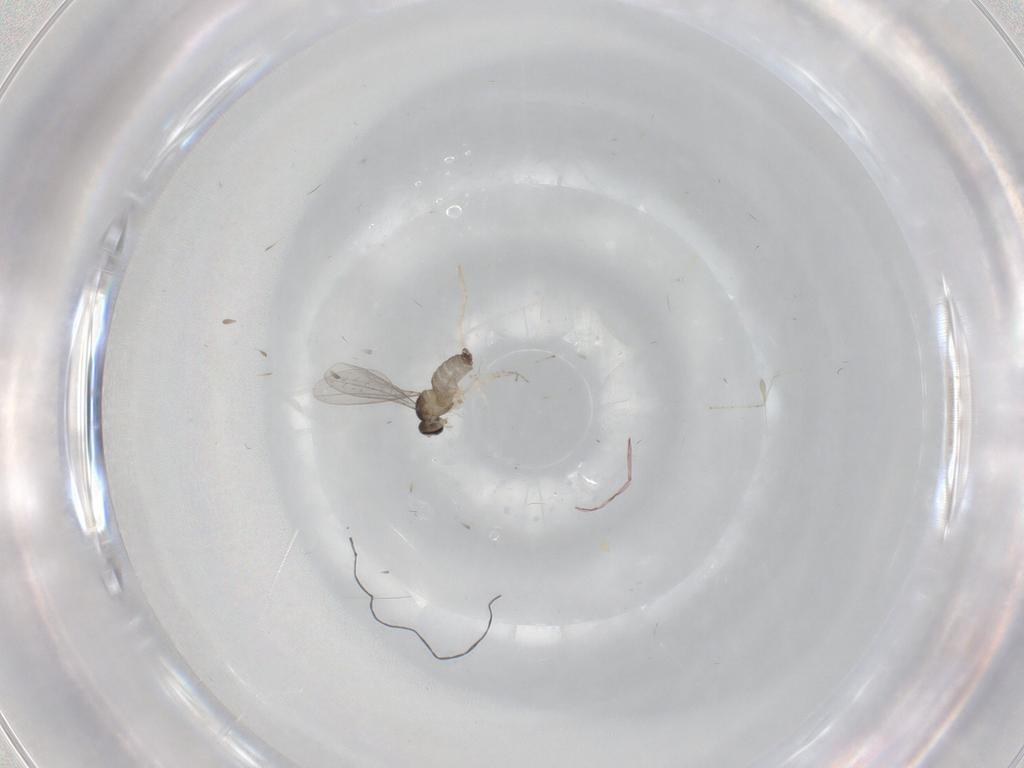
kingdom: Animalia
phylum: Arthropoda
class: Insecta
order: Diptera
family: Cecidomyiidae
